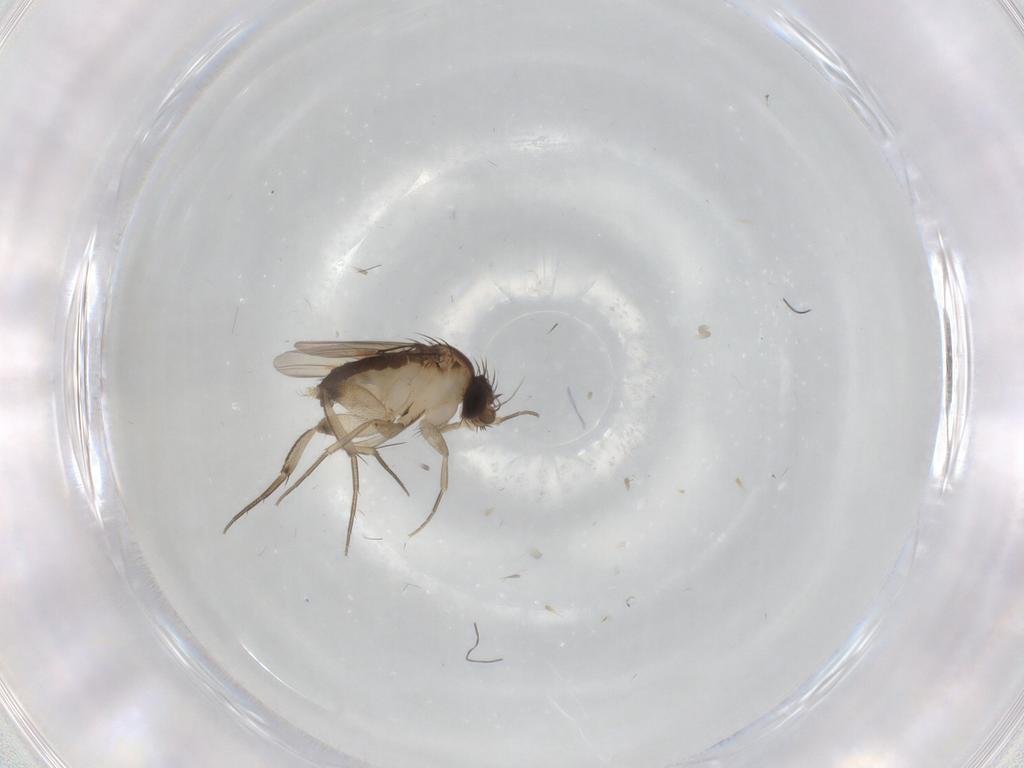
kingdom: Animalia
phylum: Arthropoda
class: Insecta
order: Diptera
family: Phoridae
